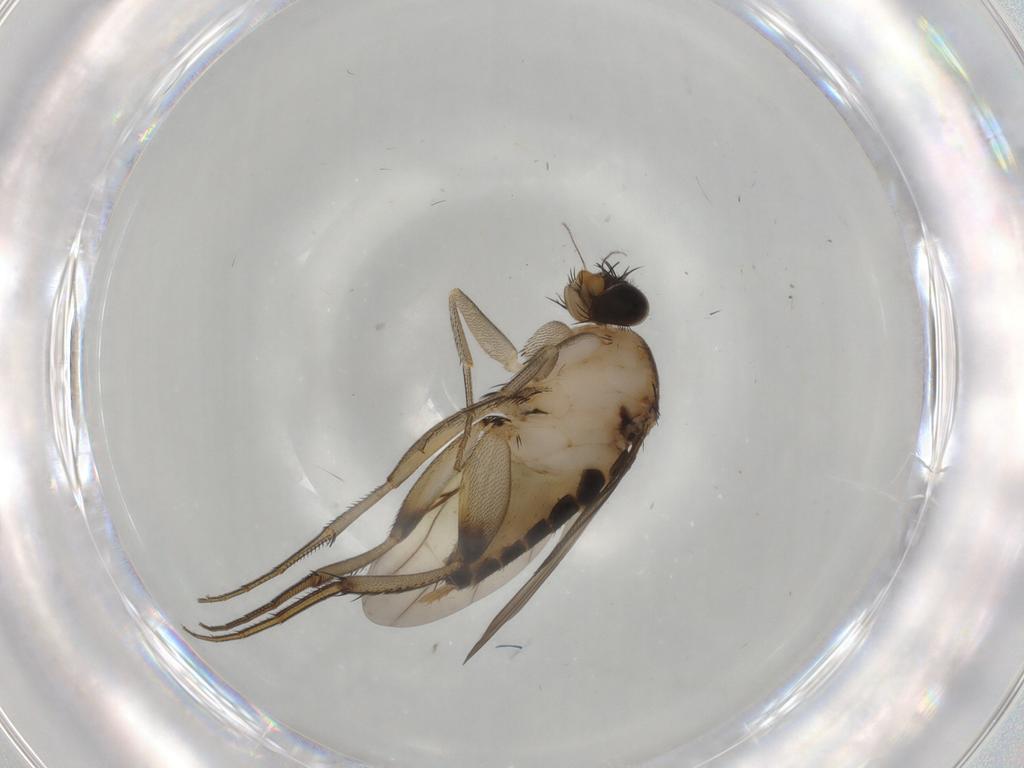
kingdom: Animalia
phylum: Arthropoda
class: Insecta
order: Diptera
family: Phoridae
